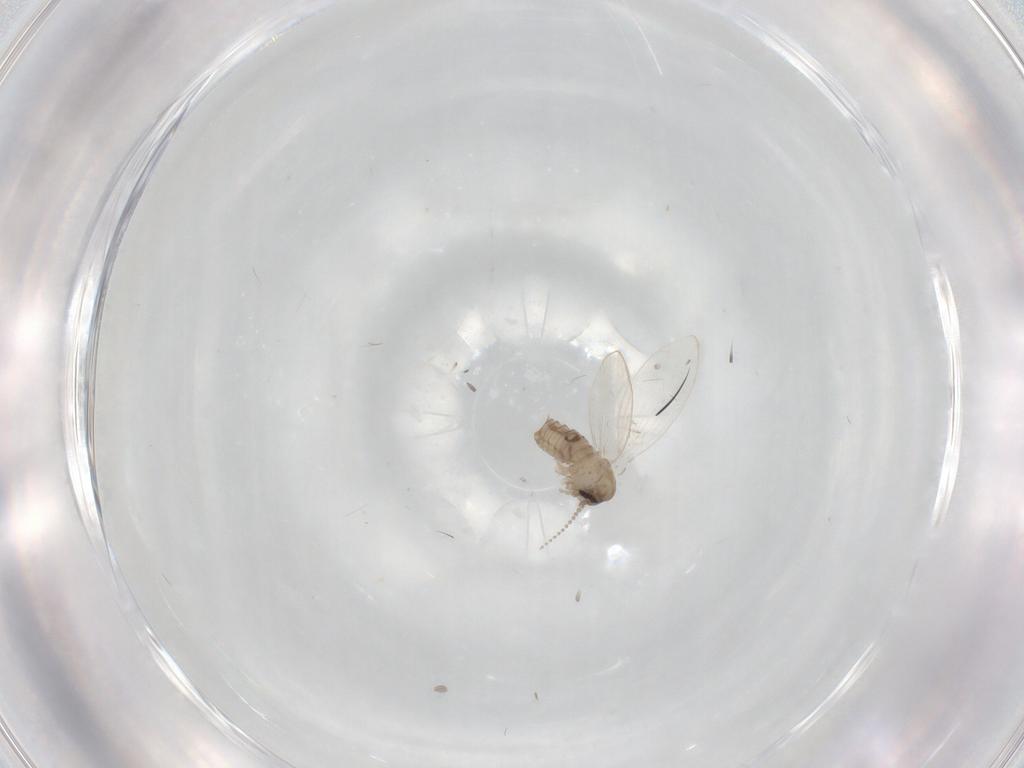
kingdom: Animalia
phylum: Arthropoda
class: Insecta
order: Diptera
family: Psychodidae
